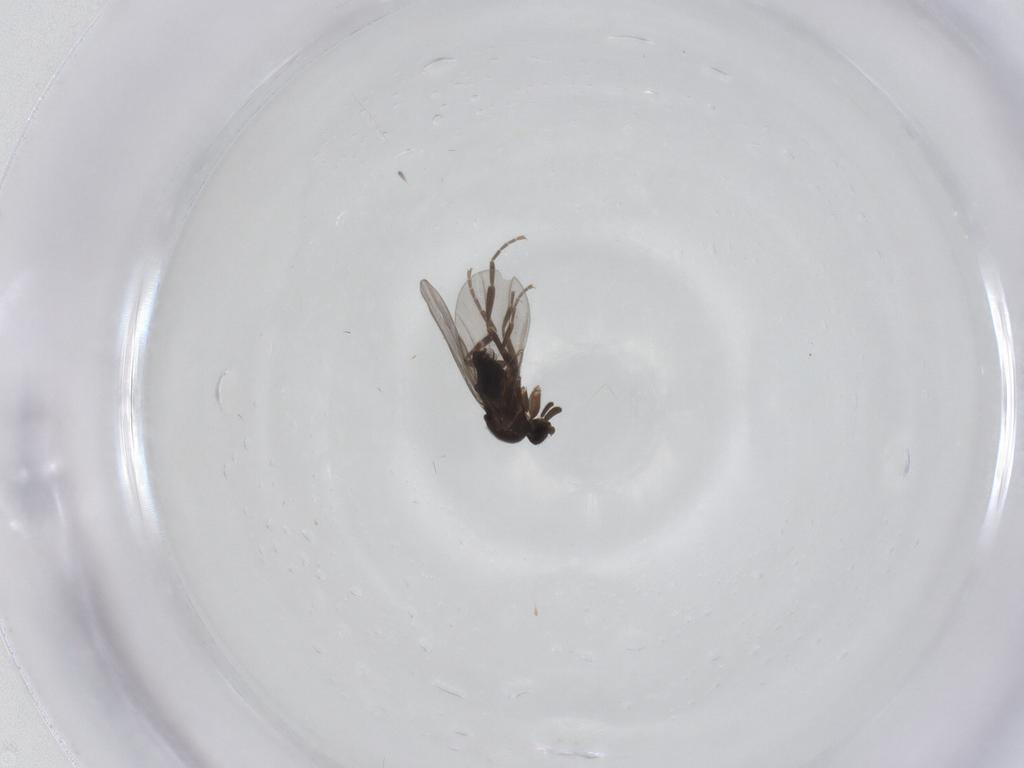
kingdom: Animalia
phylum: Arthropoda
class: Insecta
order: Diptera
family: Tachinidae
